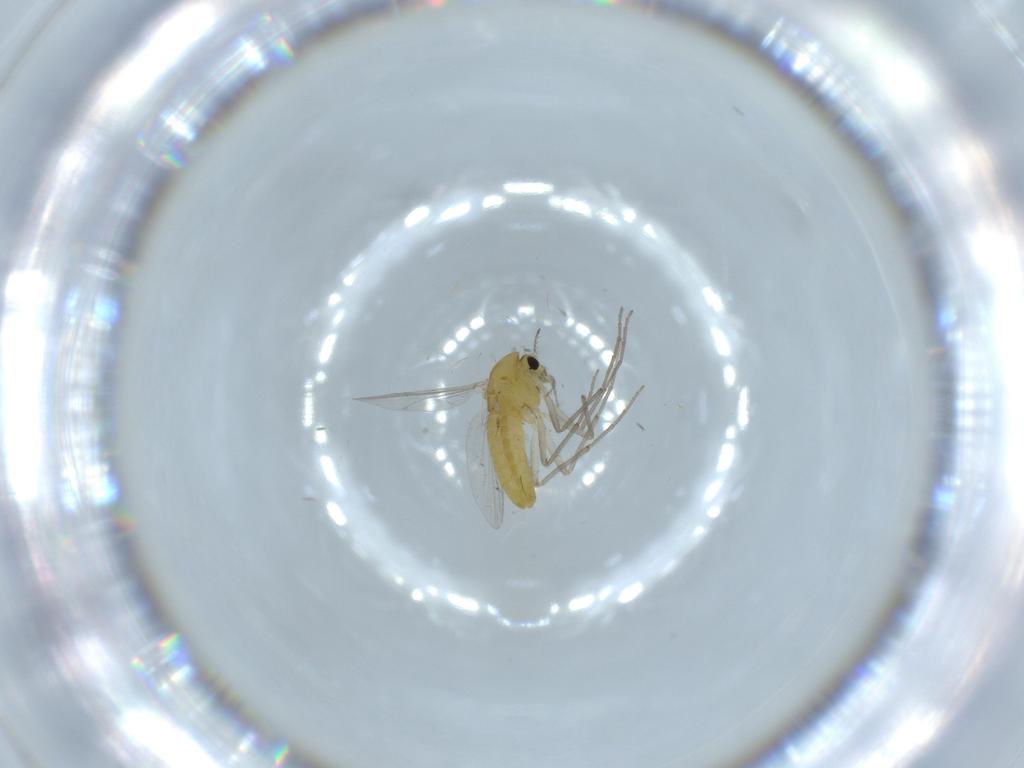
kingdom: Animalia
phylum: Arthropoda
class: Insecta
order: Diptera
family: Chironomidae
